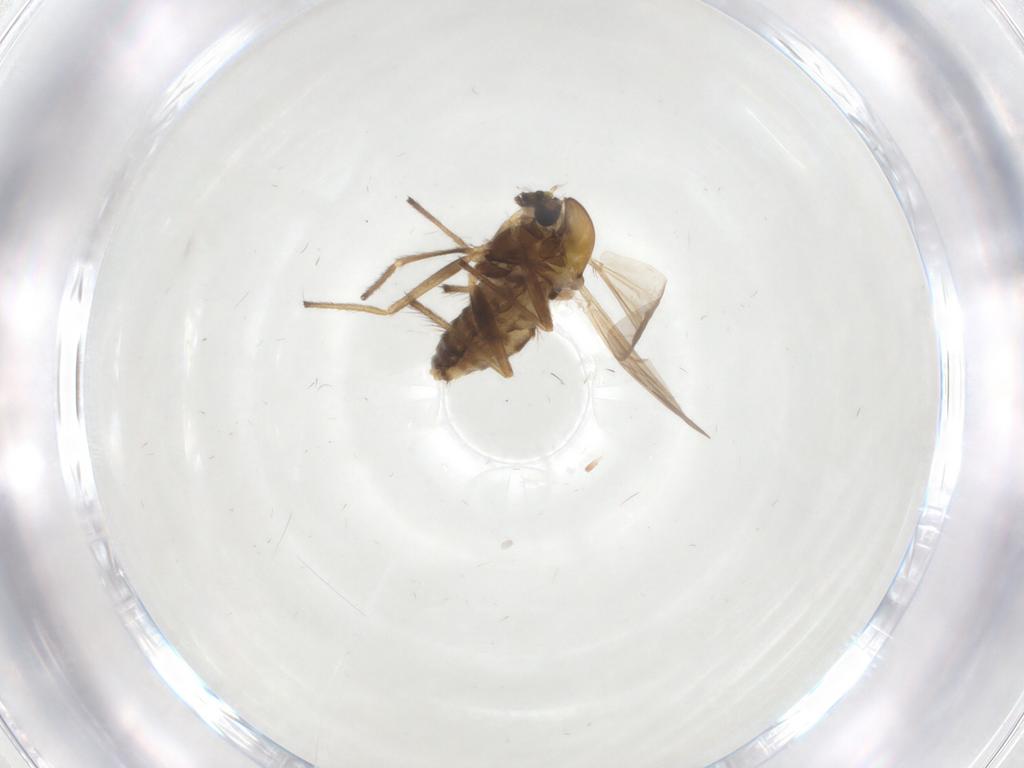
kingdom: Animalia
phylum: Arthropoda
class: Insecta
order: Diptera
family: Chironomidae
